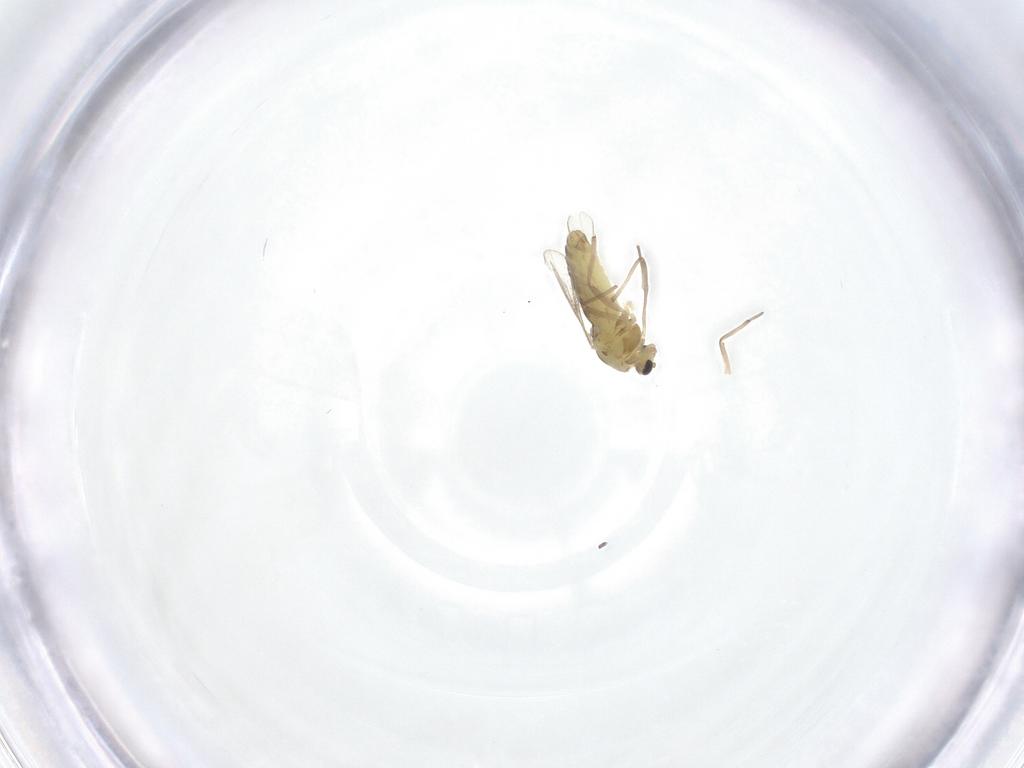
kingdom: Animalia
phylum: Arthropoda
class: Insecta
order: Diptera
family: Chironomidae
